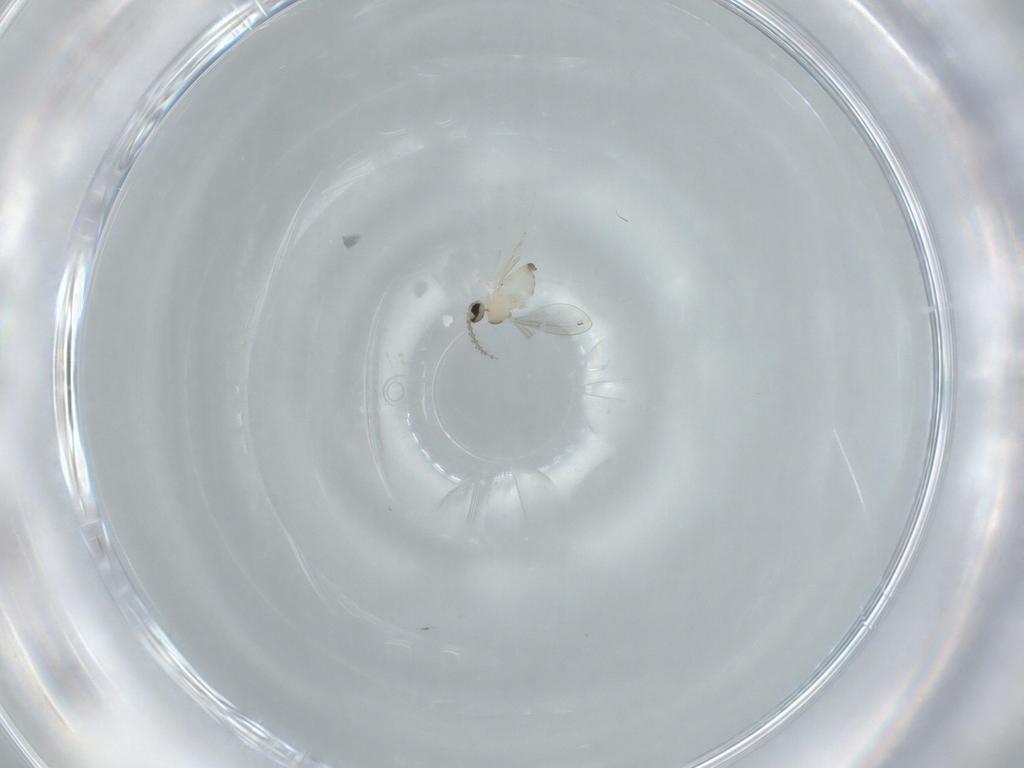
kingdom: Animalia
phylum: Arthropoda
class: Insecta
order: Diptera
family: Cecidomyiidae
